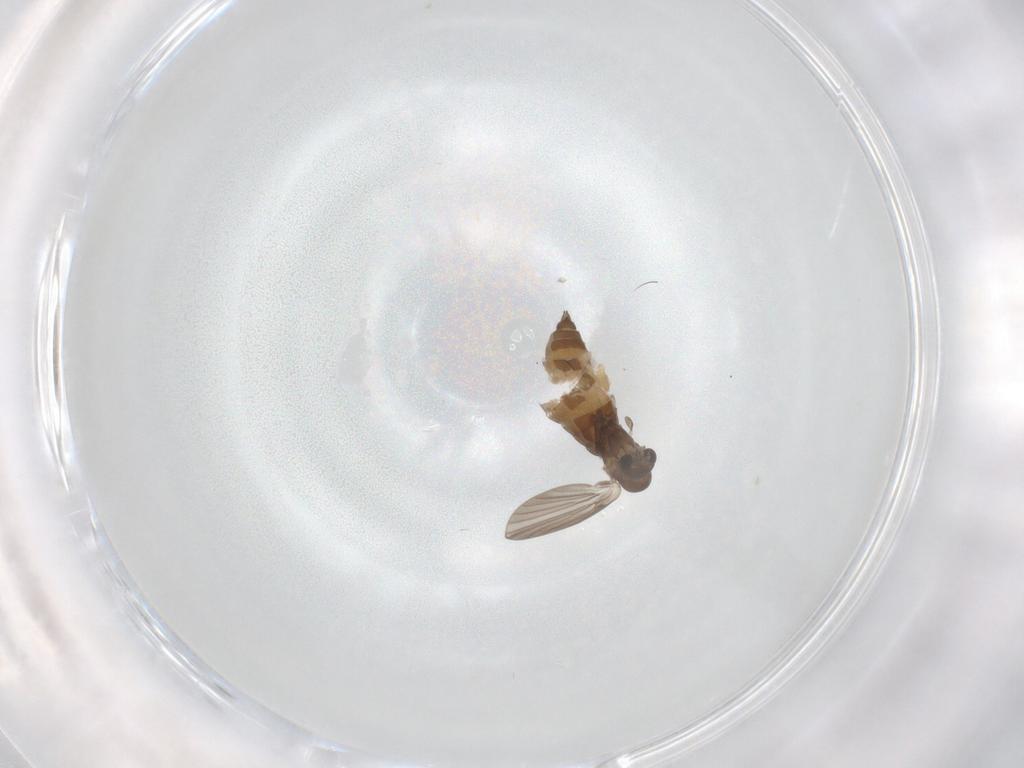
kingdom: Animalia
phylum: Arthropoda
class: Insecta
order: Diptera
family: Phoridae
